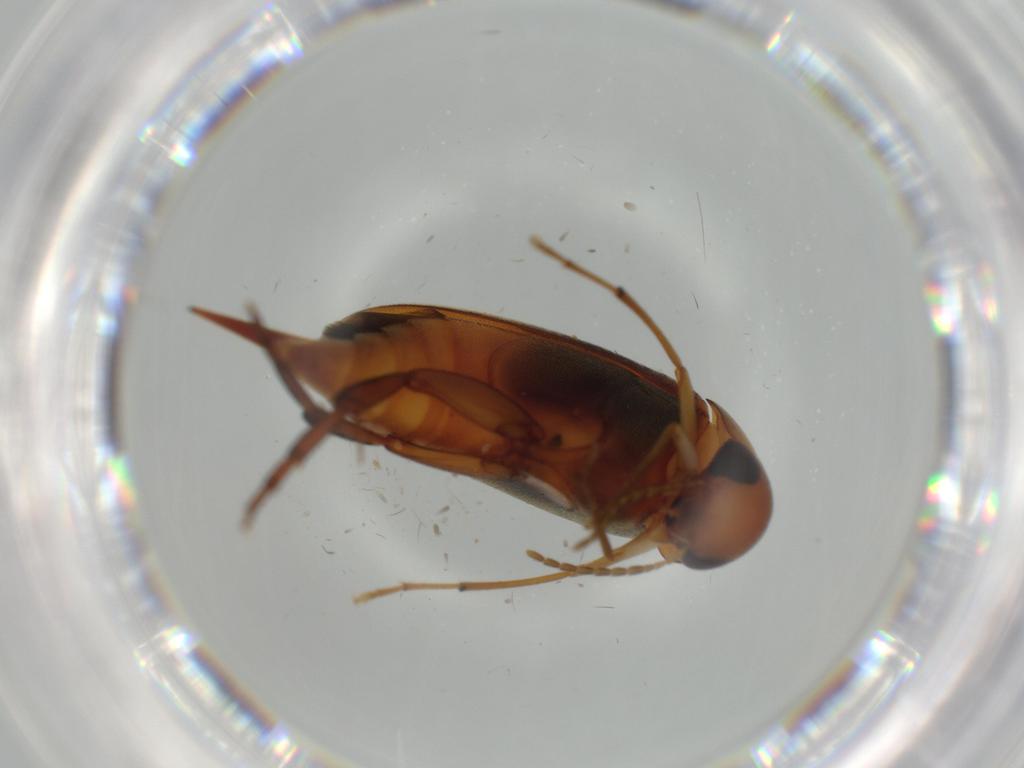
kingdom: Animalia
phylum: Arthropoda
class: Insecta
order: Coleoptera
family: Mordellidae
